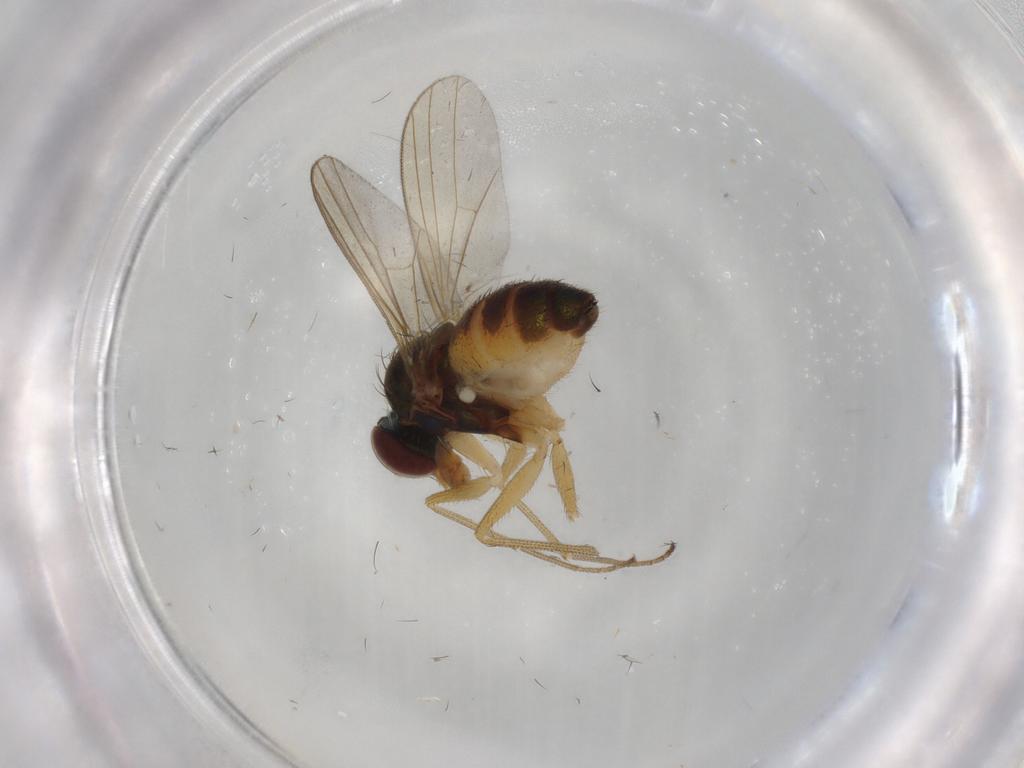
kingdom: Animalia
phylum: Arthropoda
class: Insecta
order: Diptera
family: Dolichopodidae
